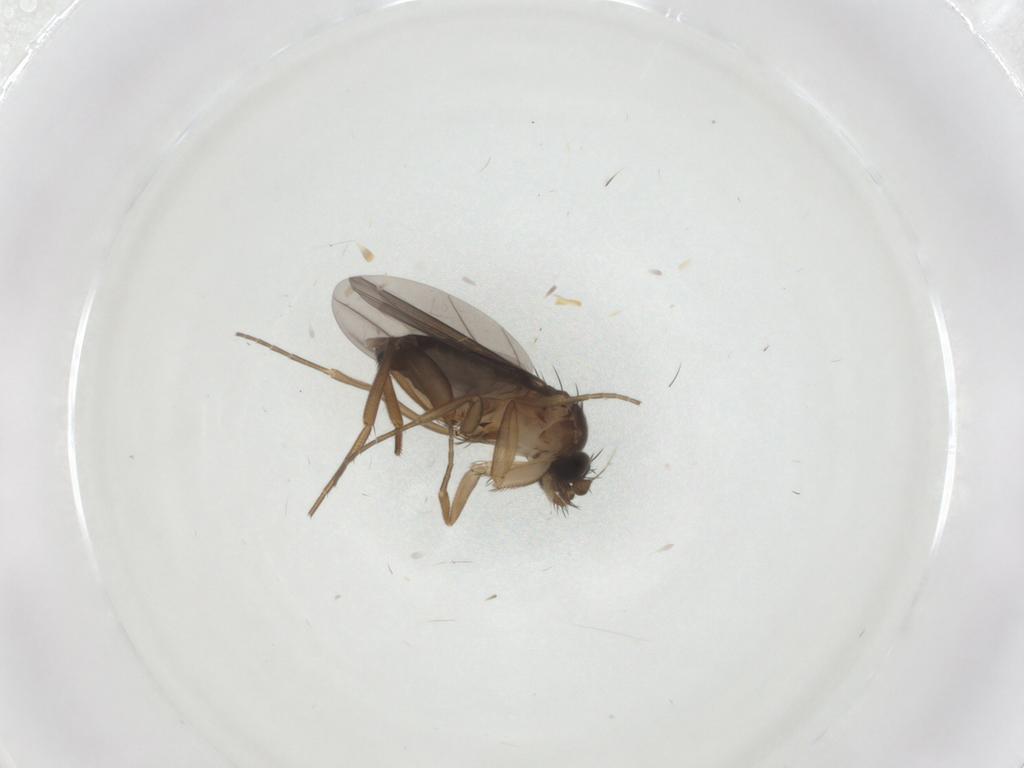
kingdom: Animalia
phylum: Arthropoda
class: Insecta
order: Diptera
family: Phoridae
